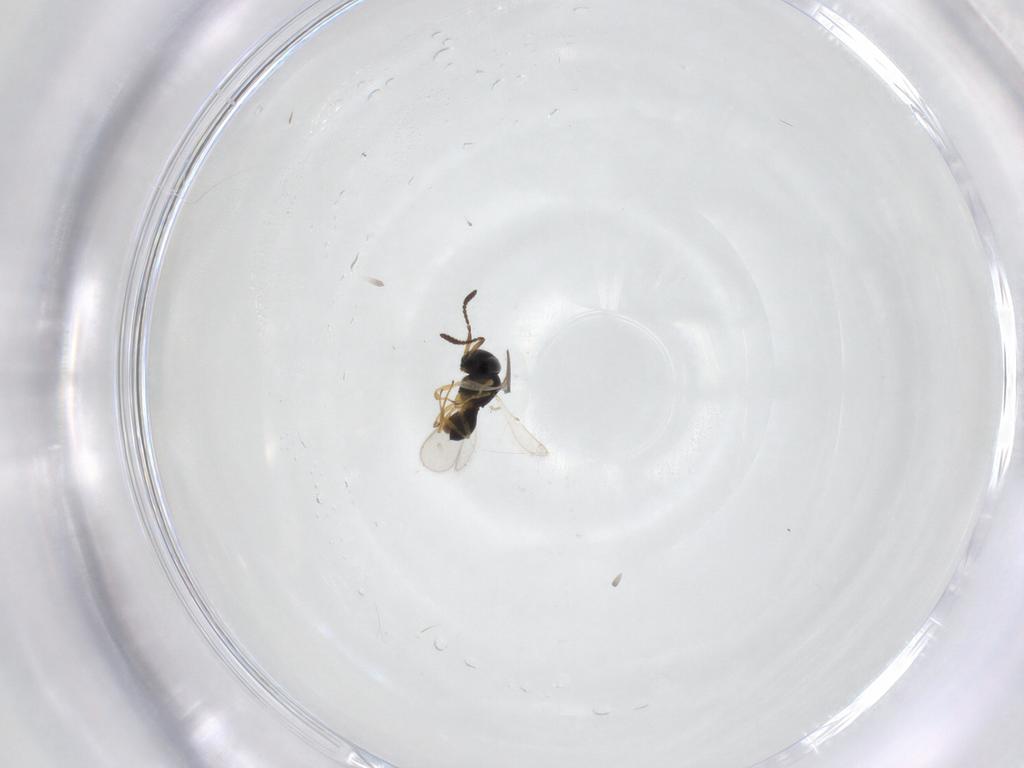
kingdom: Animalia
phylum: Arthropoda
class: Insecta
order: Hymenoptera
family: Scelionidae
